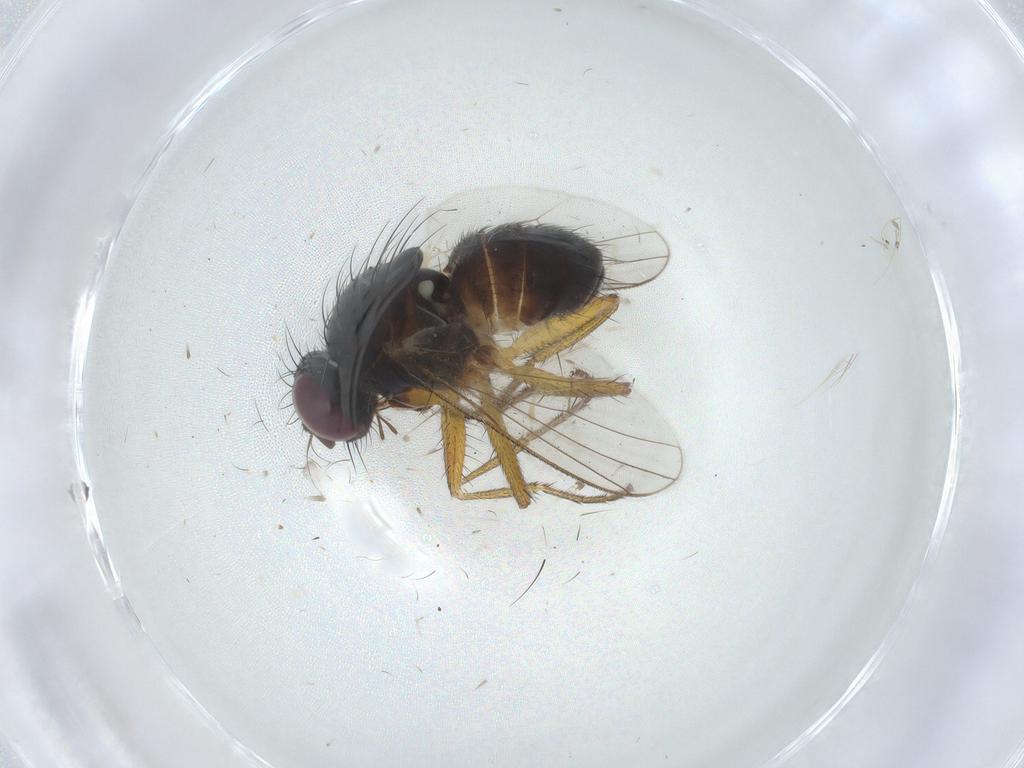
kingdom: Animalia
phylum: Arthropoda
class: Insecta
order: Diptera
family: Muscidae
